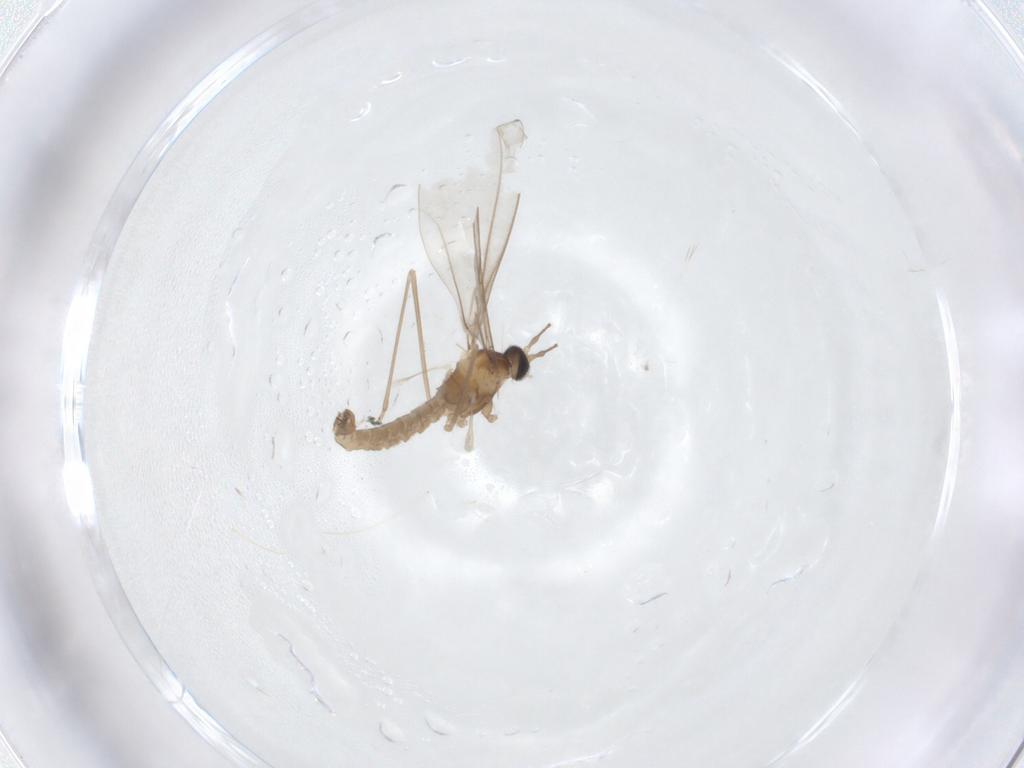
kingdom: Animalia
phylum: Arthropoda
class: Insecta
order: Diptera
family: Cecidomyiidae
